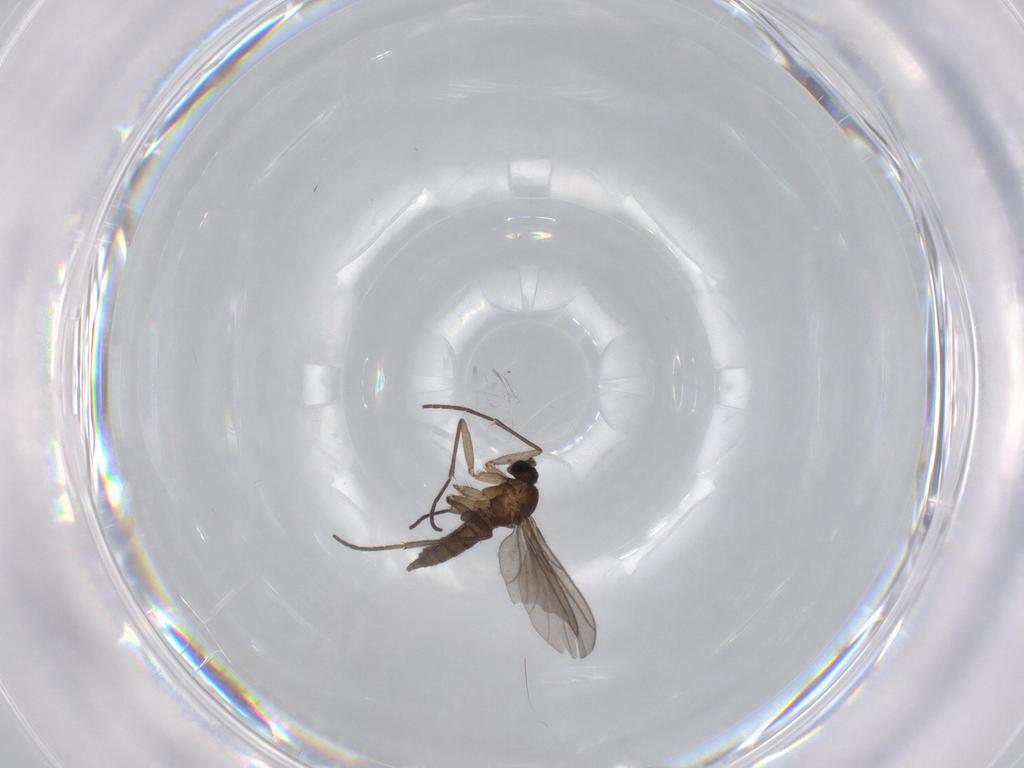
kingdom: Animalia
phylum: Arthropoda
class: Insecta
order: Diptera
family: Sciaridae
